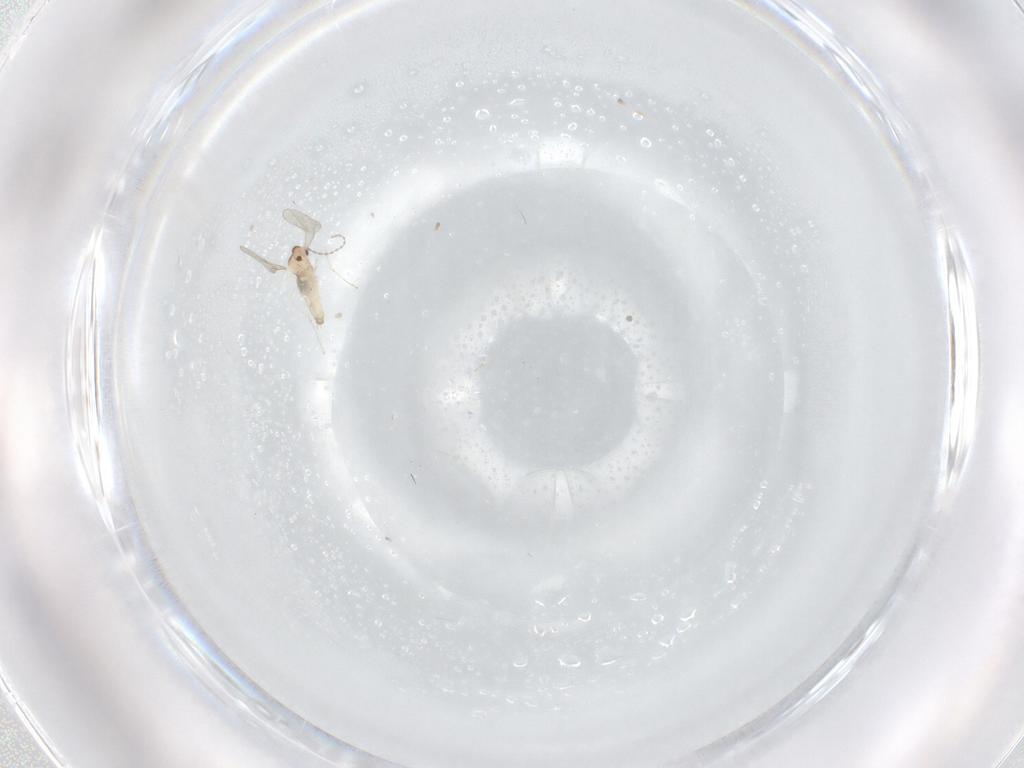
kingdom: Animalia
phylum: Arthropoda
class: Insecta
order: Diptera
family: Cecidomyiidae
